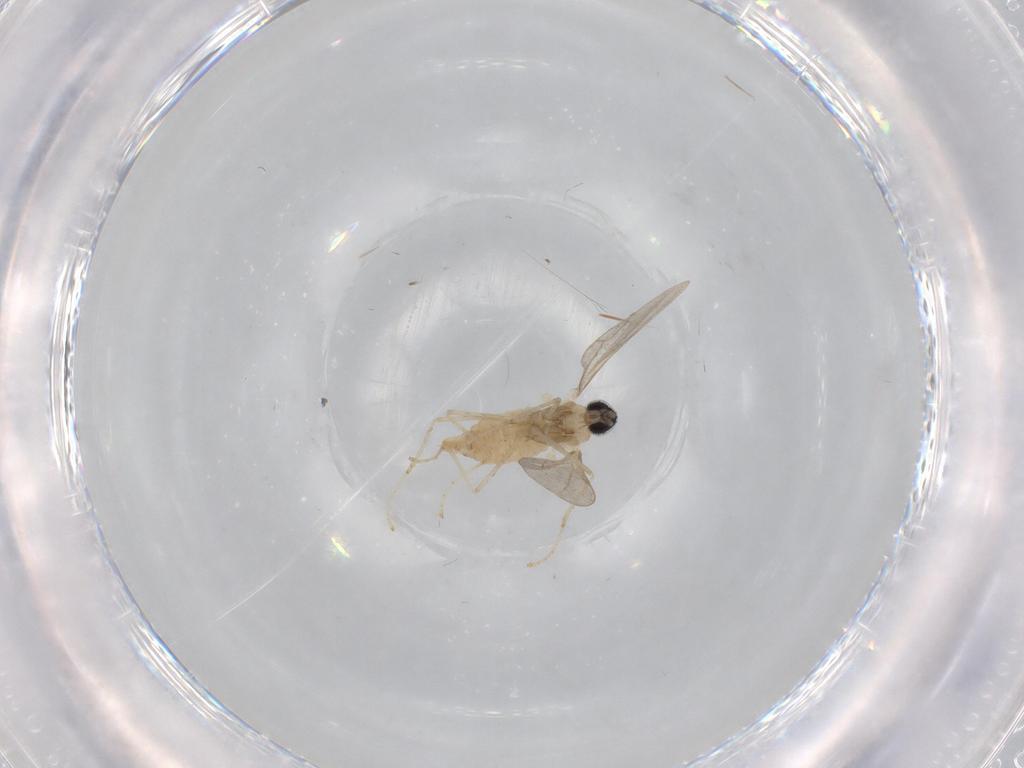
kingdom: Animalia
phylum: Arthropoda
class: Insecta
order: Diptera
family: Cecidomyiidae
